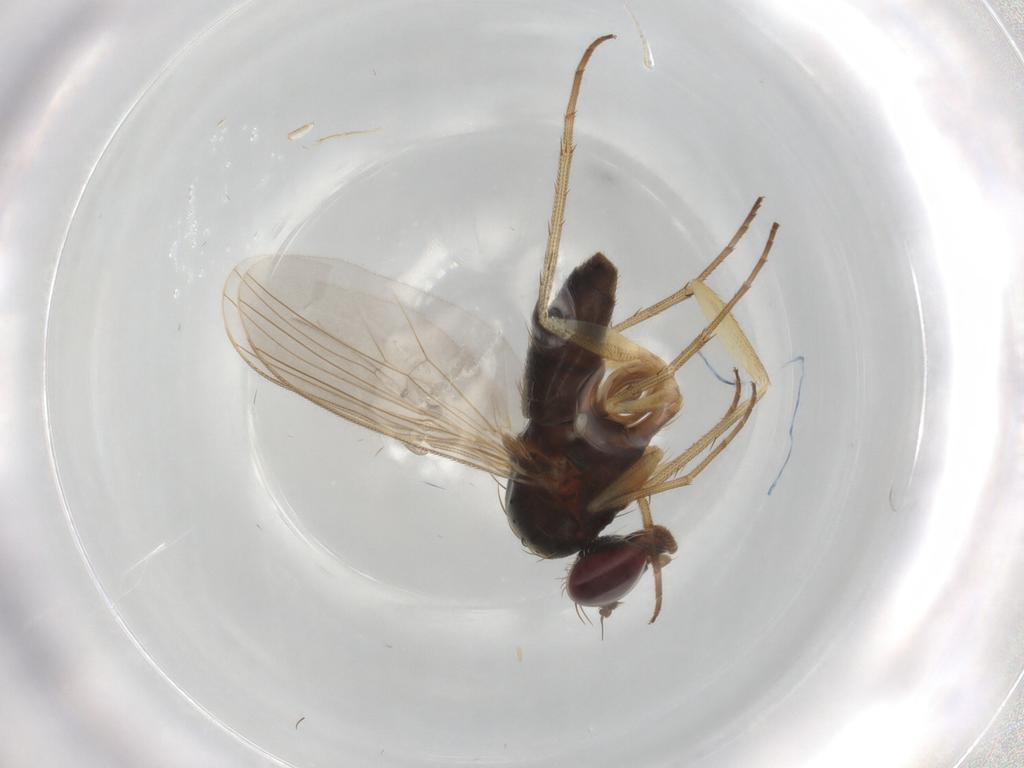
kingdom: Animalia
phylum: Arthropoda
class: Insecta
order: Diptera
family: Dolichopodidae
